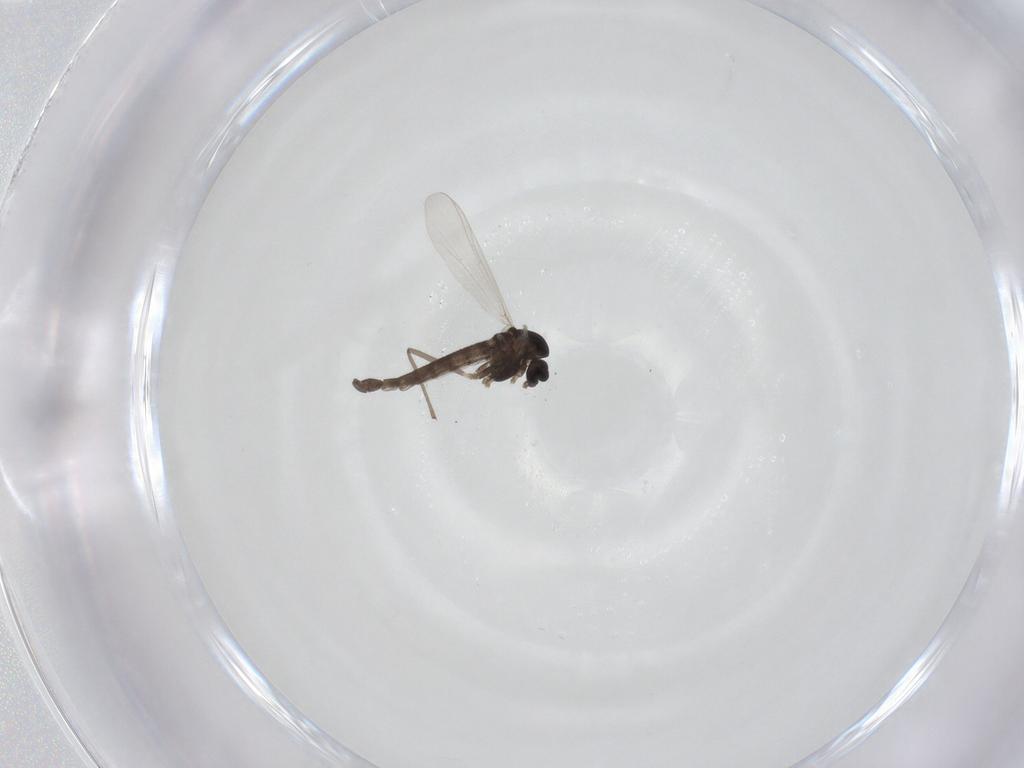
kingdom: Animalia
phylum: Arthropoda
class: Insecta
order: Diptera
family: Chironomidae
